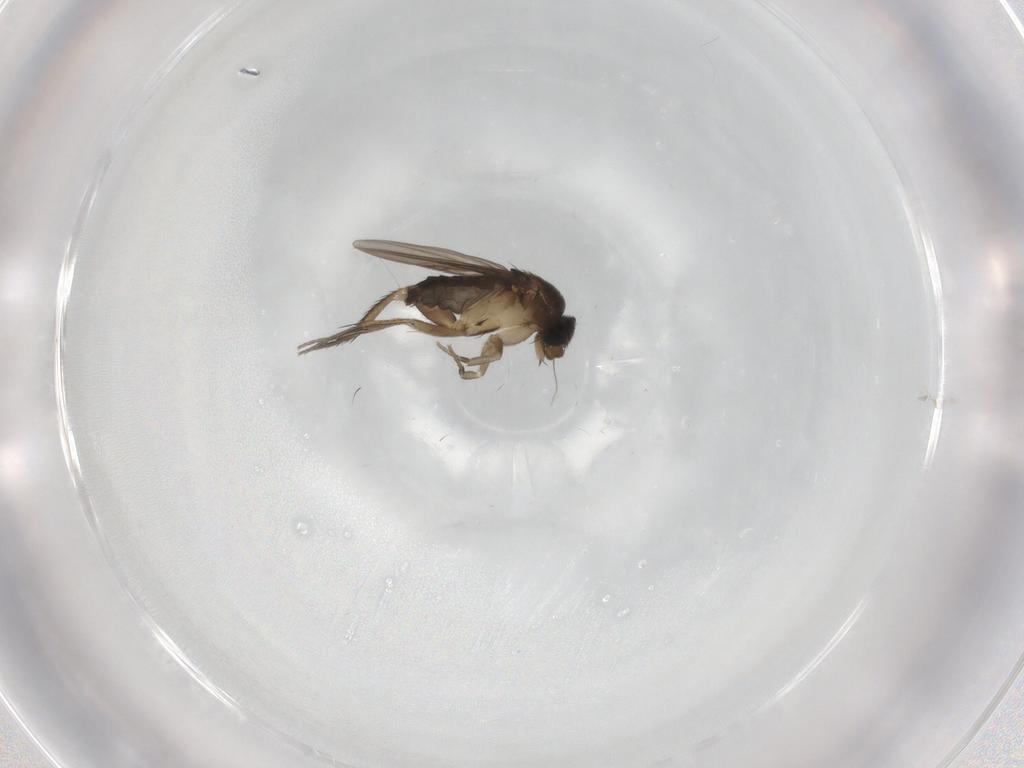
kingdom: Animalia
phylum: Arthropoda
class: Insecta
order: Diptera
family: Phoridae
